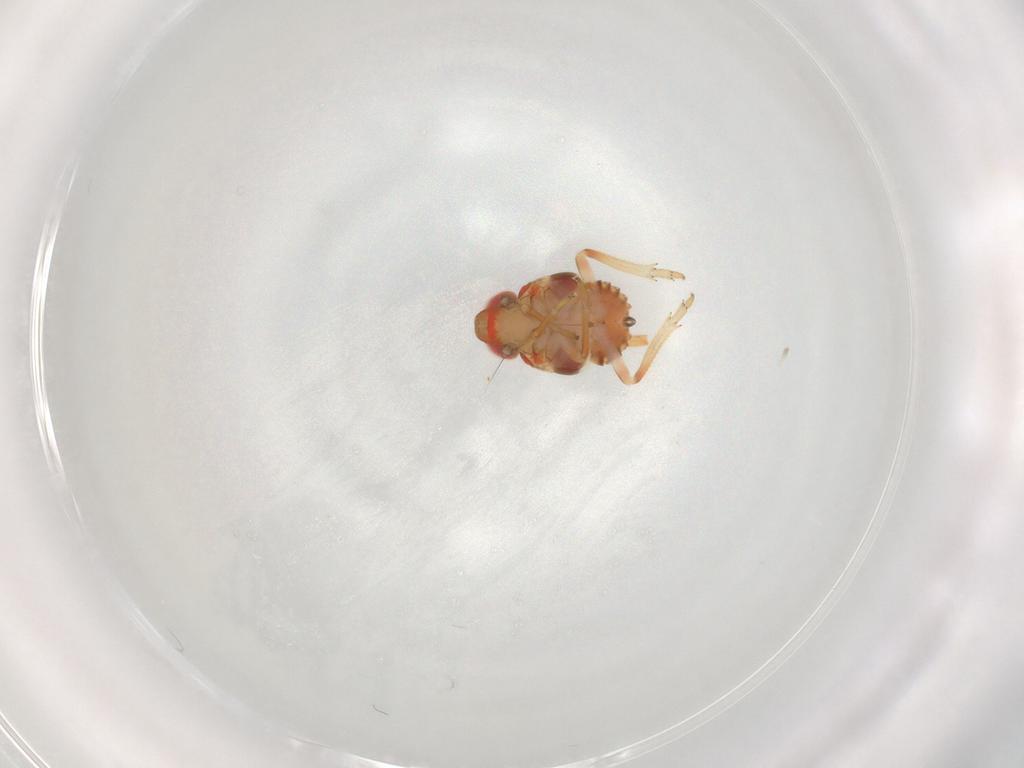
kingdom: Animalia
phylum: Arthropoda
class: Insecta
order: Hemiptera
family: Issidae
